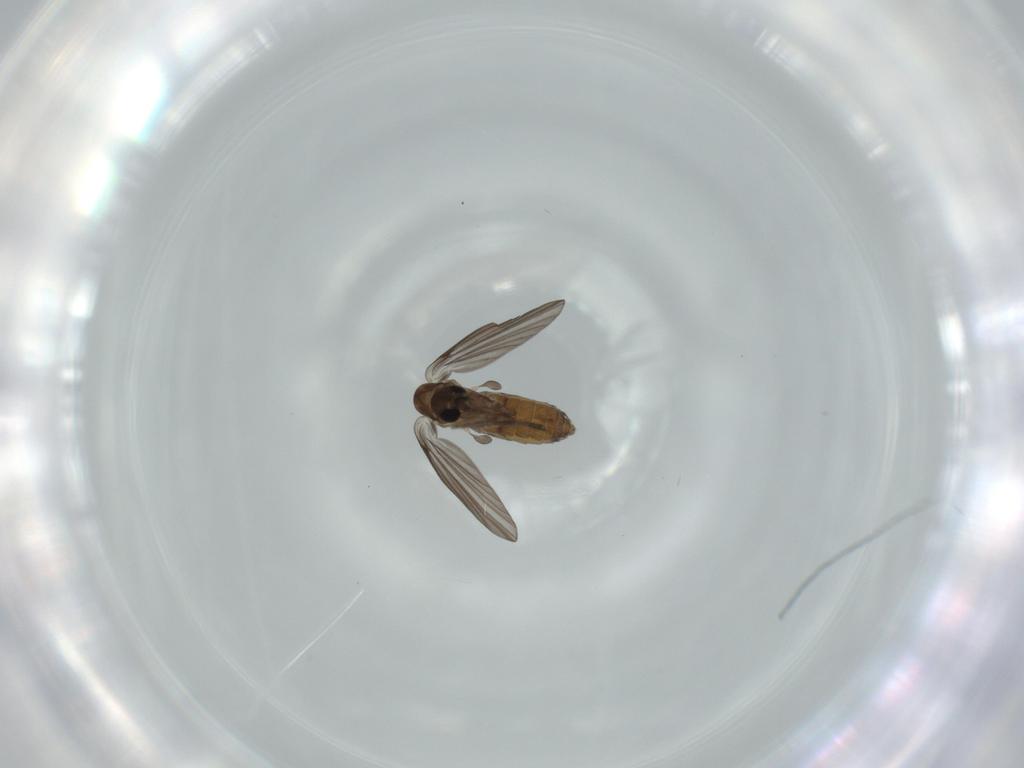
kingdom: Animalia
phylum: Arthropoda
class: Insecta
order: Diptera
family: Psychodidae
